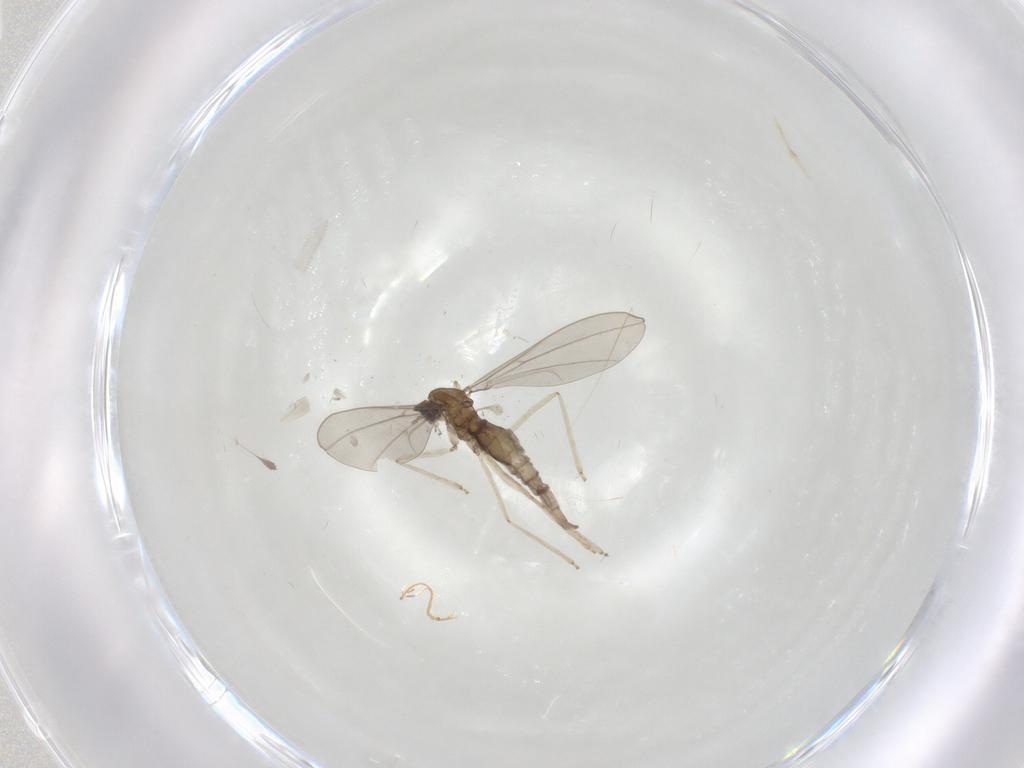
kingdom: Animalia
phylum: Arthropoda
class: Insecta
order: Diptera
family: Cecidomyiidae
